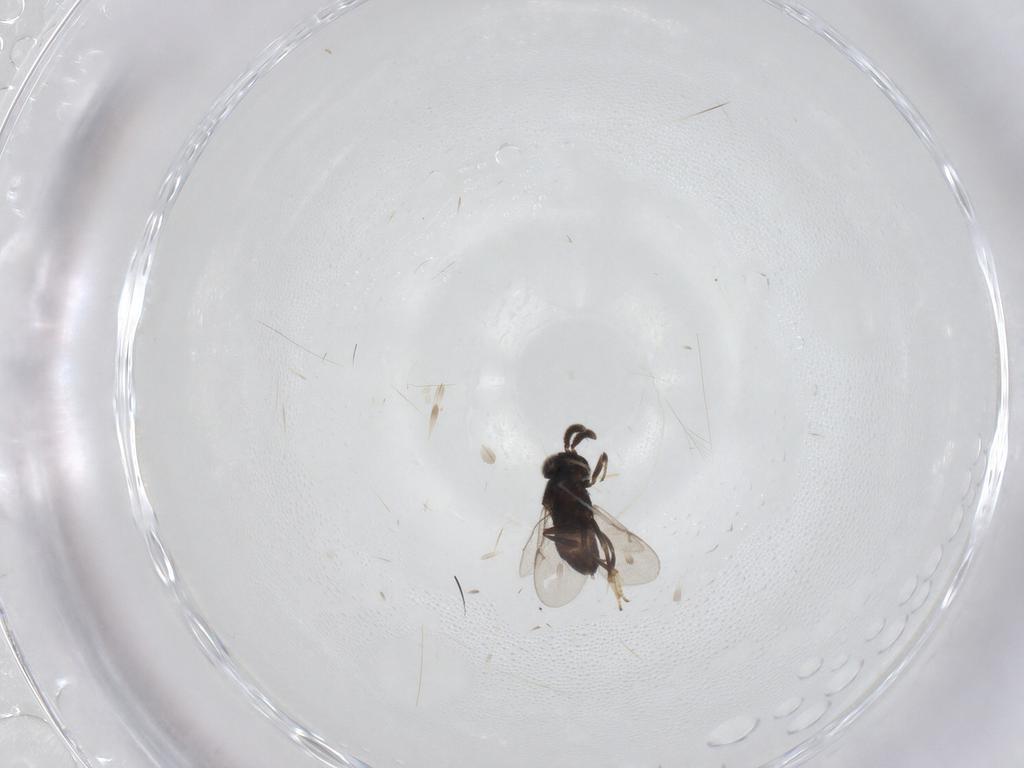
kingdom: Animalia
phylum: Arthropoda
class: Insecta
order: Hymenoptera
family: Encyrtidae
